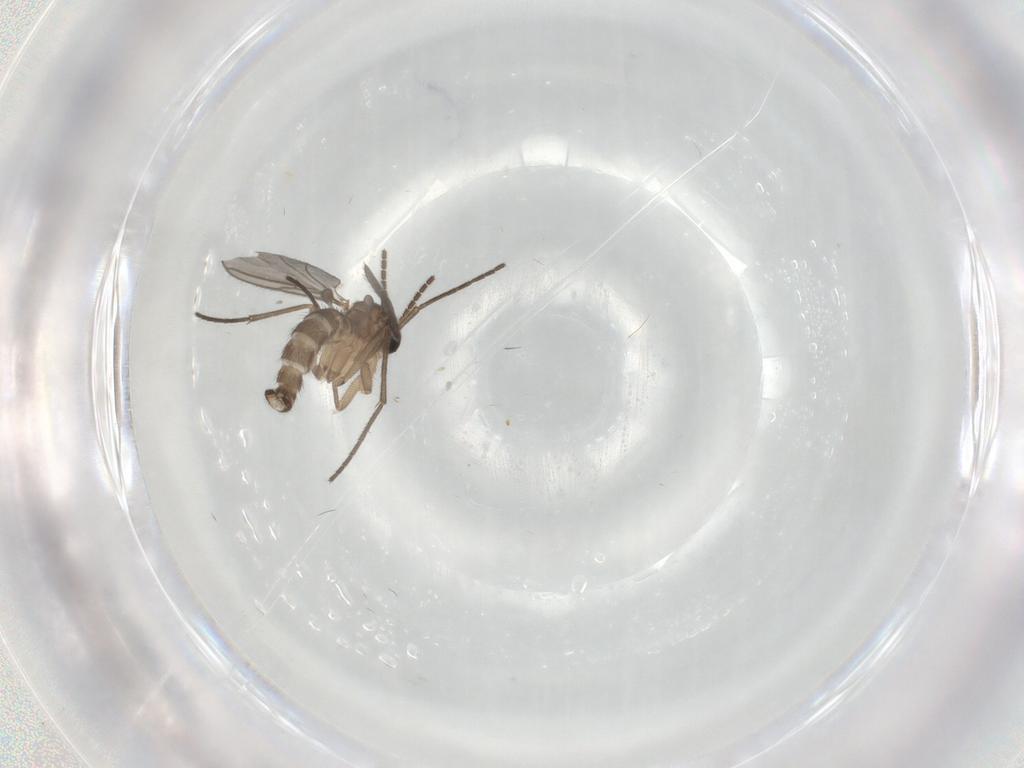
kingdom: Animalia
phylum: Arthropoda
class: Insecta
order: Diptera
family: Sciaridae
